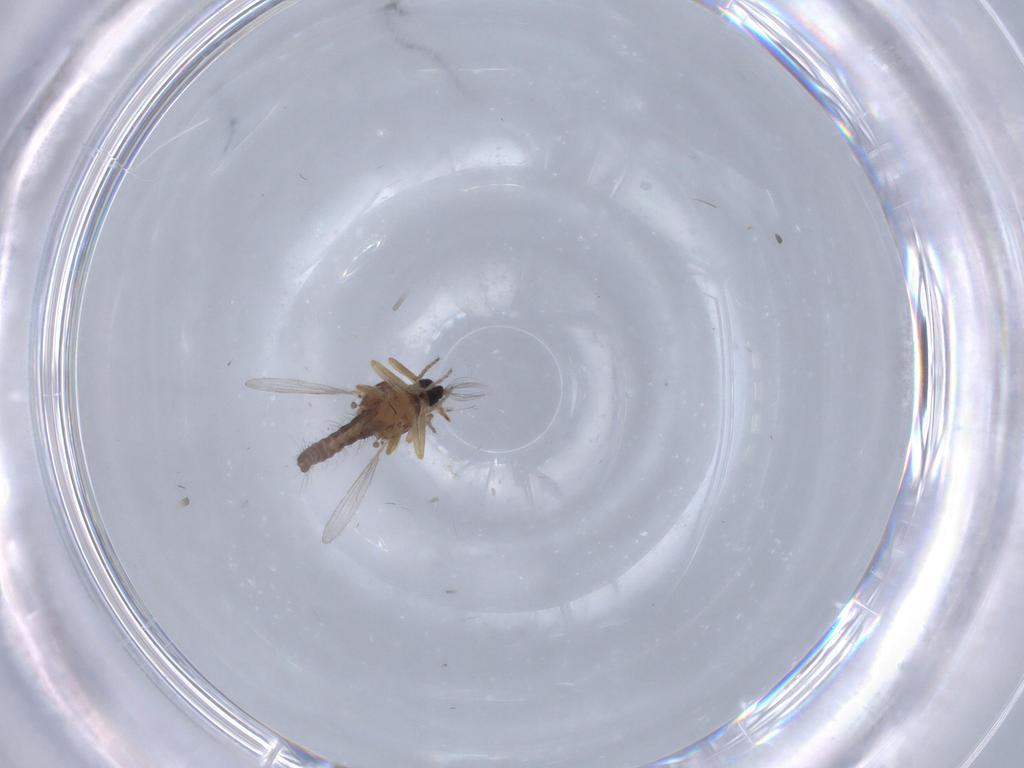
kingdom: Animalia
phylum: Arthropoda
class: Insecta
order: Diptera
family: Ceratopogonidae
